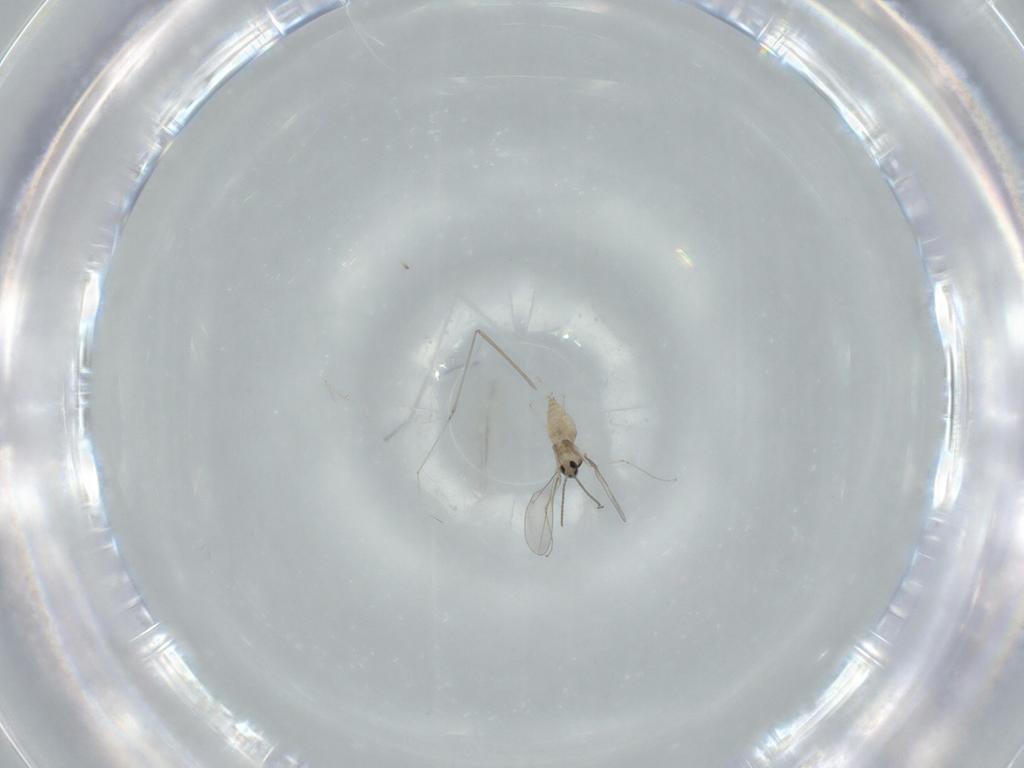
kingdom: Animalia
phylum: Arthropoda
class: Insecta
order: Diptera
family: Cecidomyiidae
